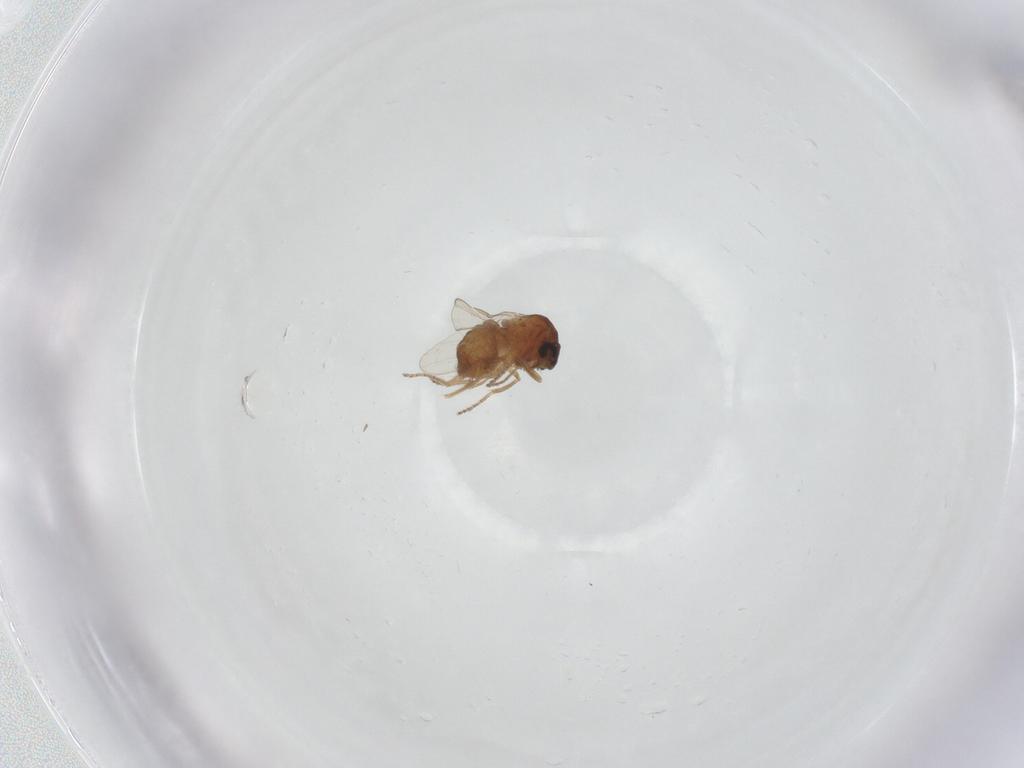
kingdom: Animalia
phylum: Arthropoda
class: Insecta
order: Diptera
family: Ceratopogonidae
